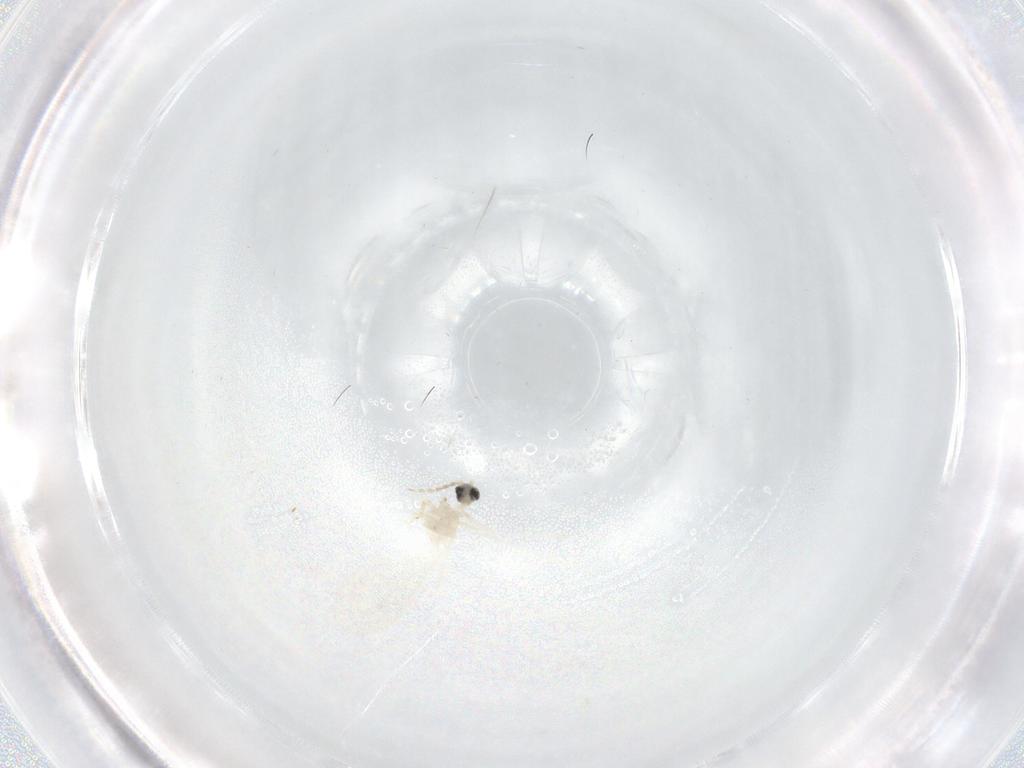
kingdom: Animalia
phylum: Arthropoda
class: Insecta
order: Diptera
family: Cecidomyiidae
